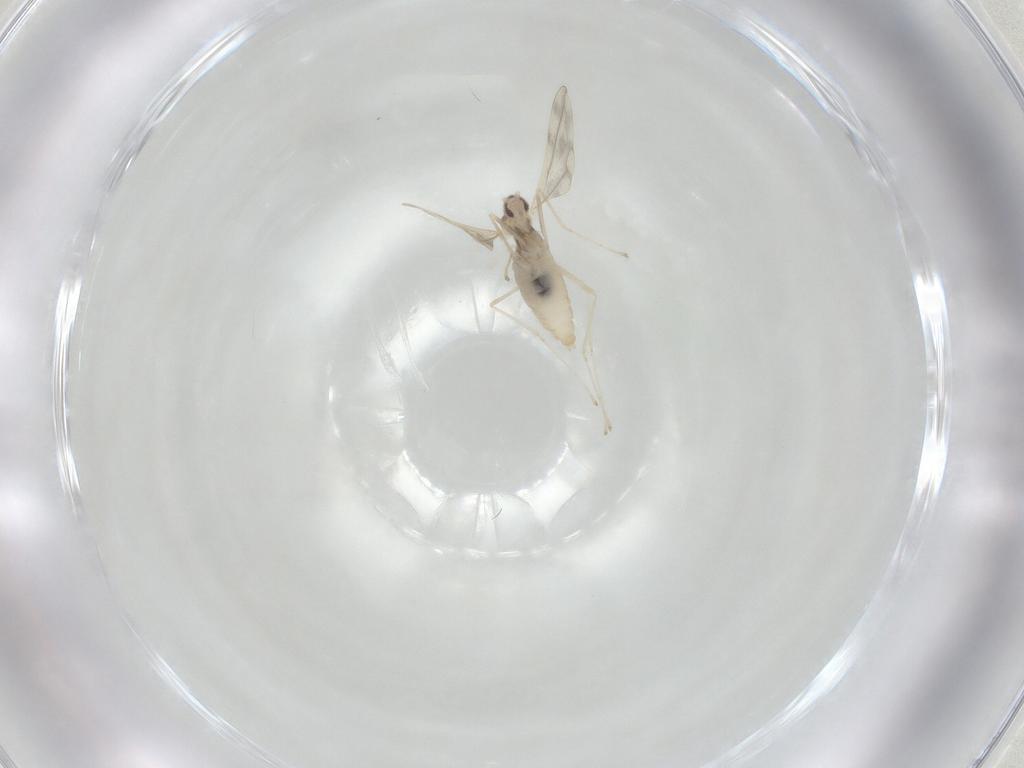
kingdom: Animalia
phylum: Arthropoda
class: Insecta
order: Diptera
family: Cecidomyiidae
